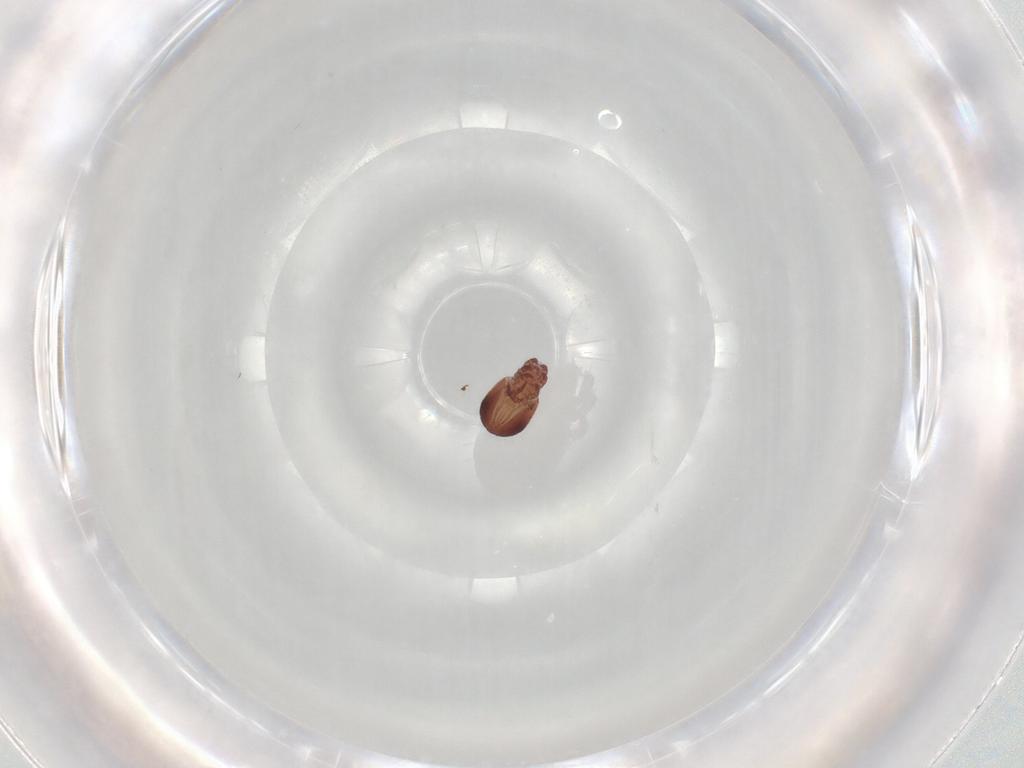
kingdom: Animalia
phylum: Arthropoda
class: Arachnida
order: Sarcoptiformes
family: Trhypochthoniidae
